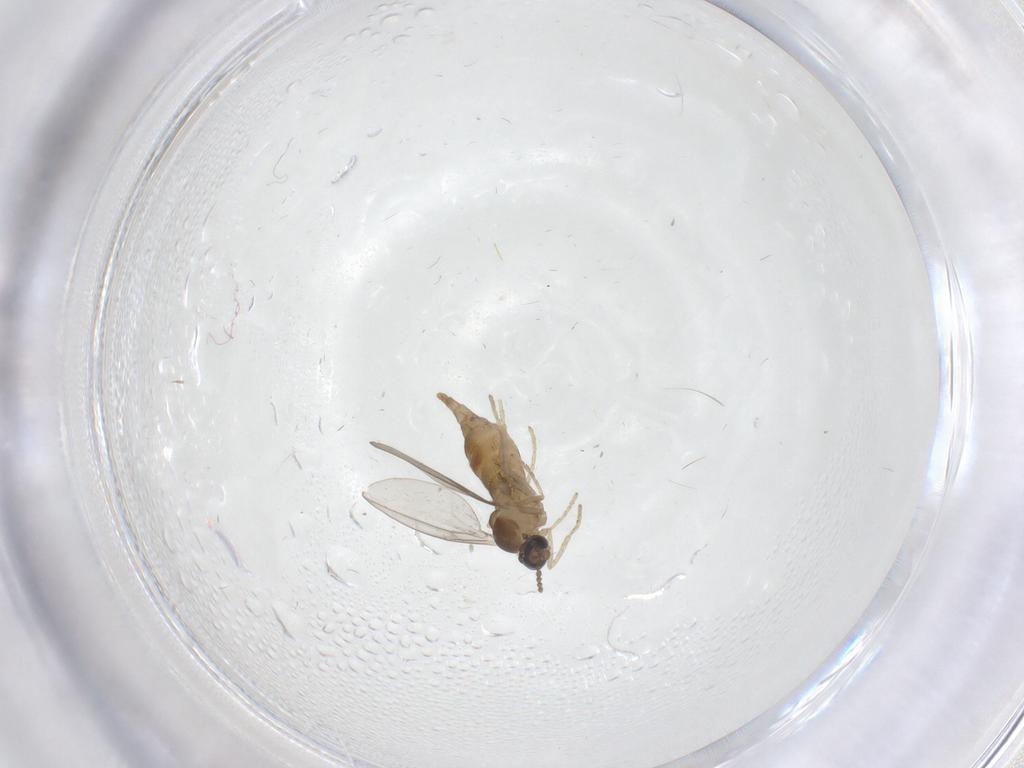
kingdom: Animalia
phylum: Arthropoda
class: Insecta
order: Diptera
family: Cecidomyiidae
